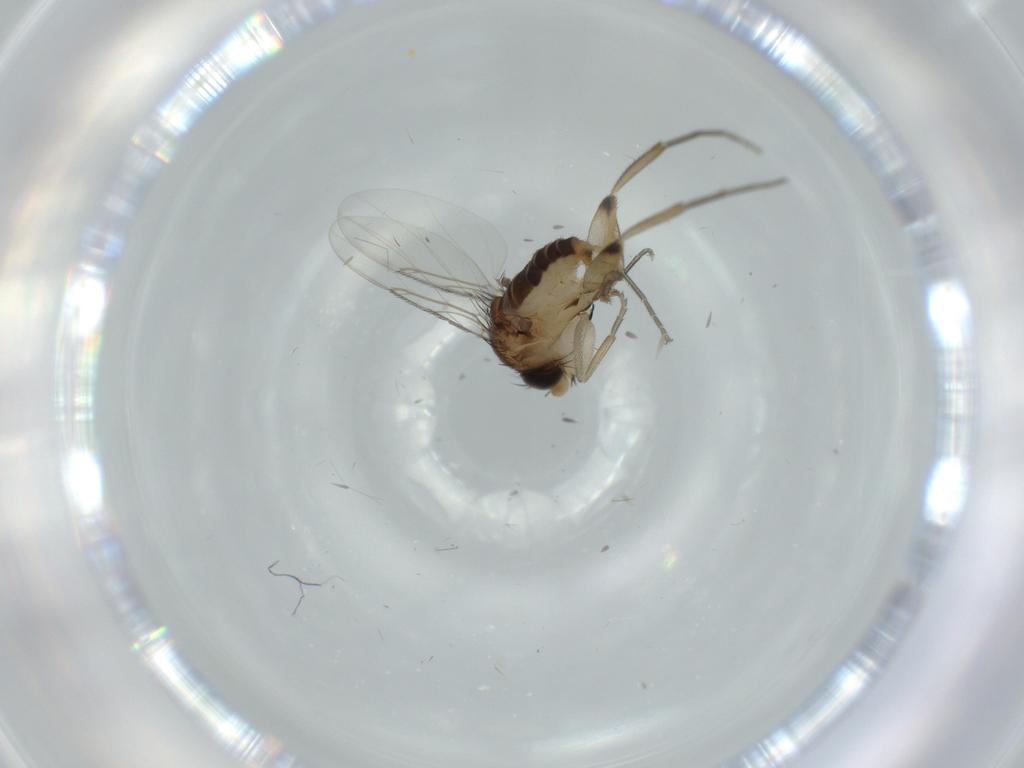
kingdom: Animalia
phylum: Arthropoda
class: Insecta
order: Diptera
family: Phoridae
